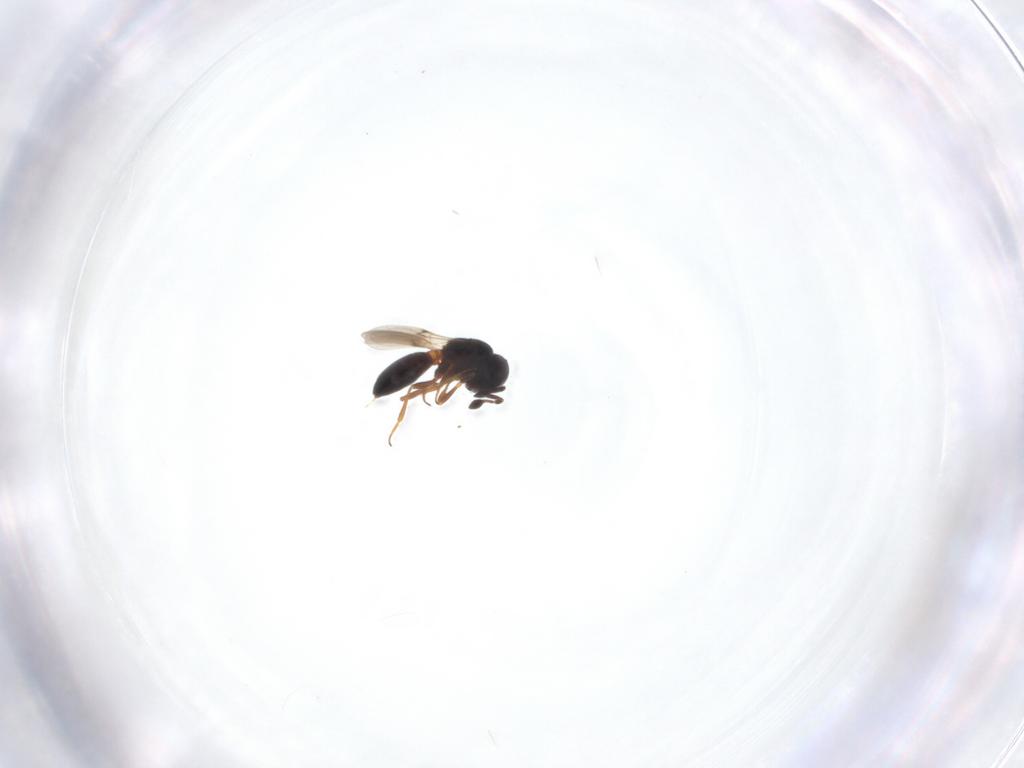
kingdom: Animalia
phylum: Arthropoda
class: Insecta
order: Hymenoptera
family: Scelionidae
